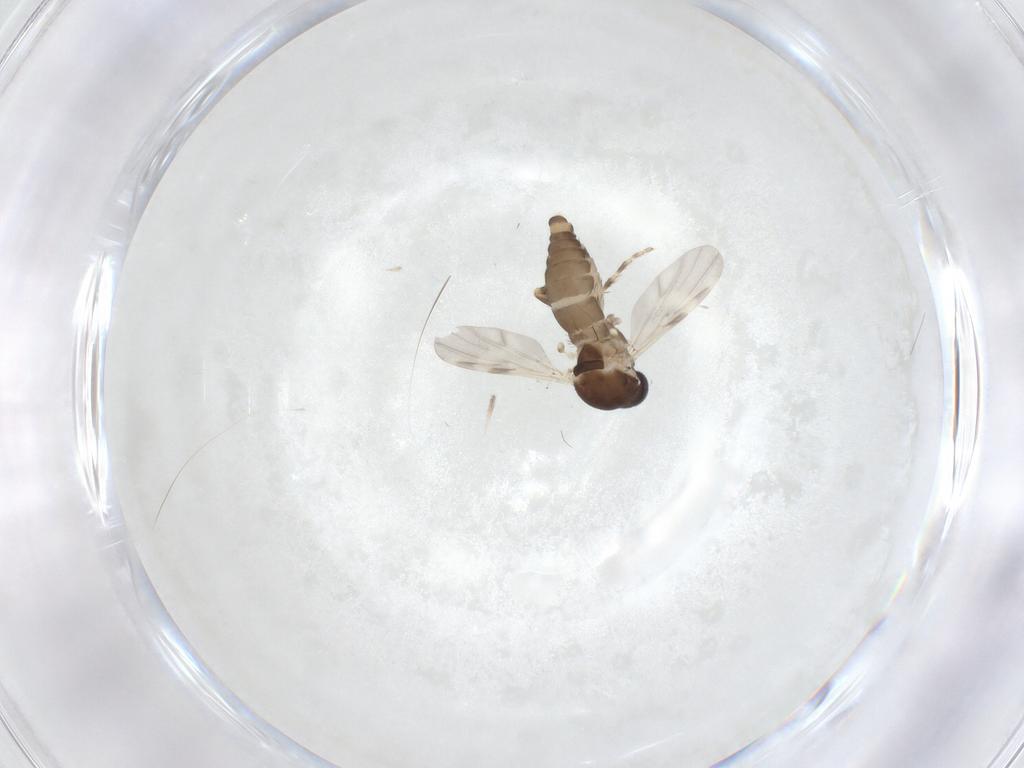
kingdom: Animalia
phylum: Arthropoda
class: Insecta
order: Diptera
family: Ceratopogonidae
